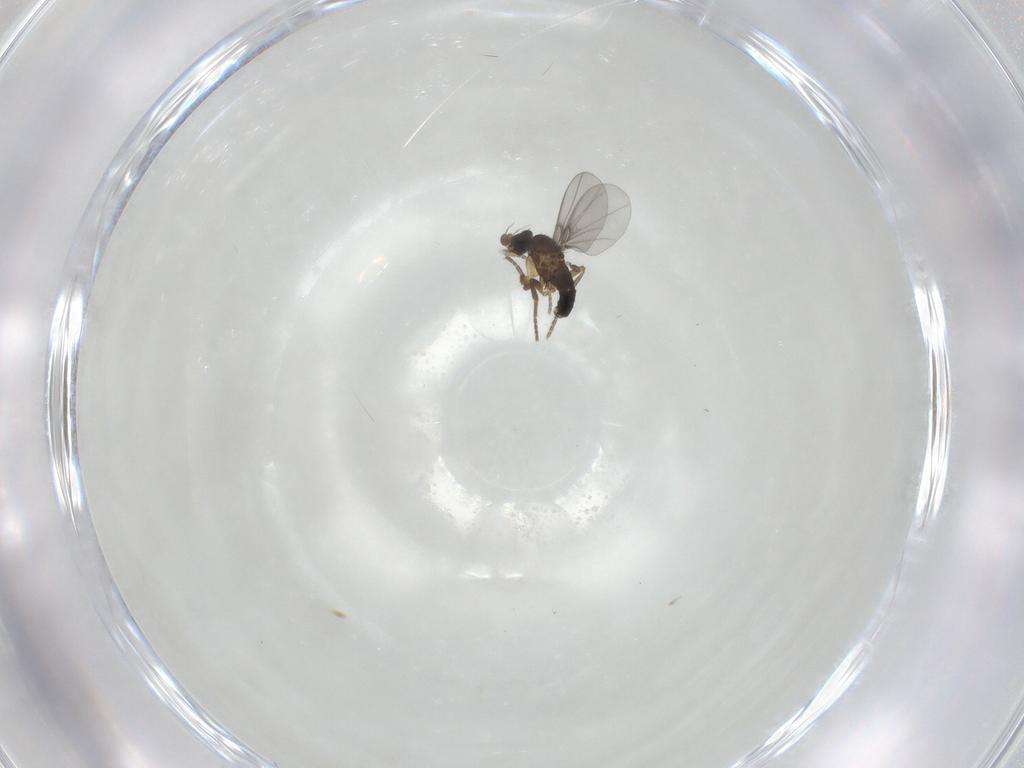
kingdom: Animalia
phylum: Arthropoda
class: Insecta
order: Diptera
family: Phoridae
